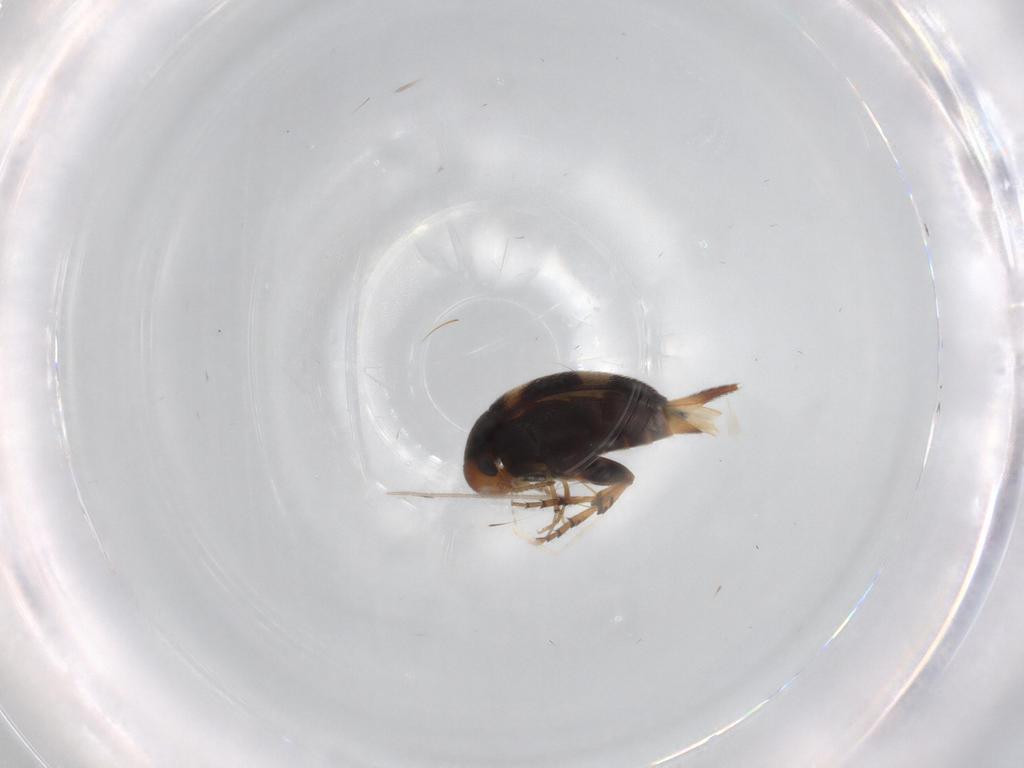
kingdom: Animalia
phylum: Arthropoda
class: Insecta
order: Coleoptera
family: Mordellidae
